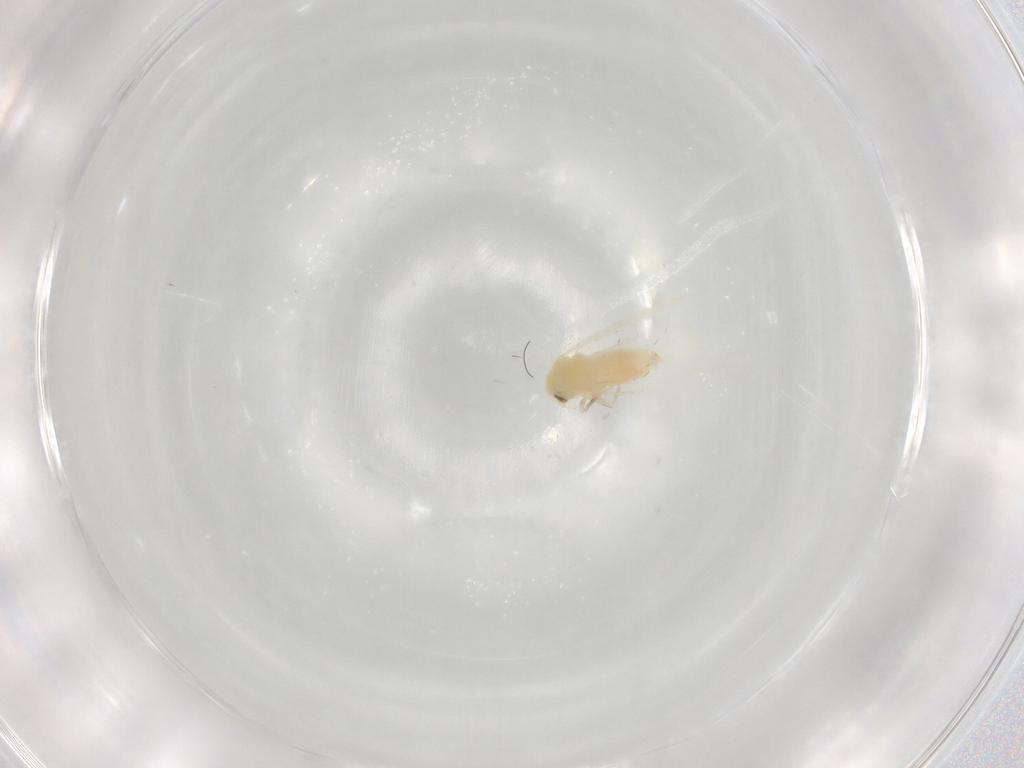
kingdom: Animalia
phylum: Arthropoda
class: Insecta
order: Hemiptera
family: Aleyrodidae
